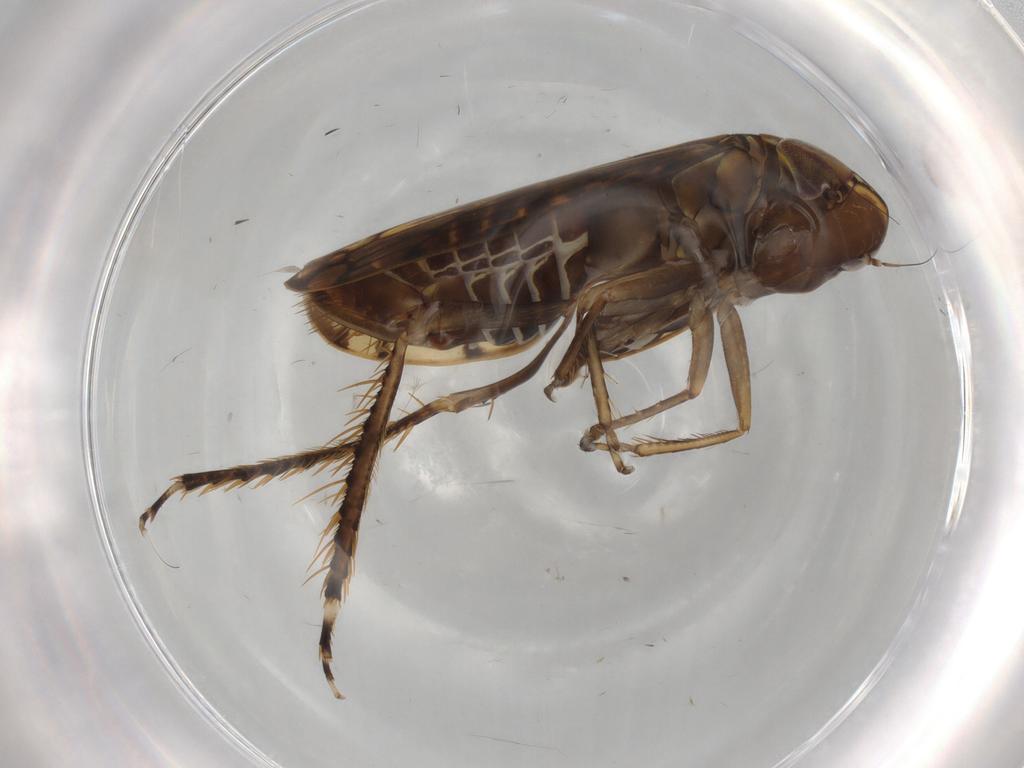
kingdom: Animalia
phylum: Arthropoda
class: Insecta
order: Hemiptera
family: Cicadellidae
